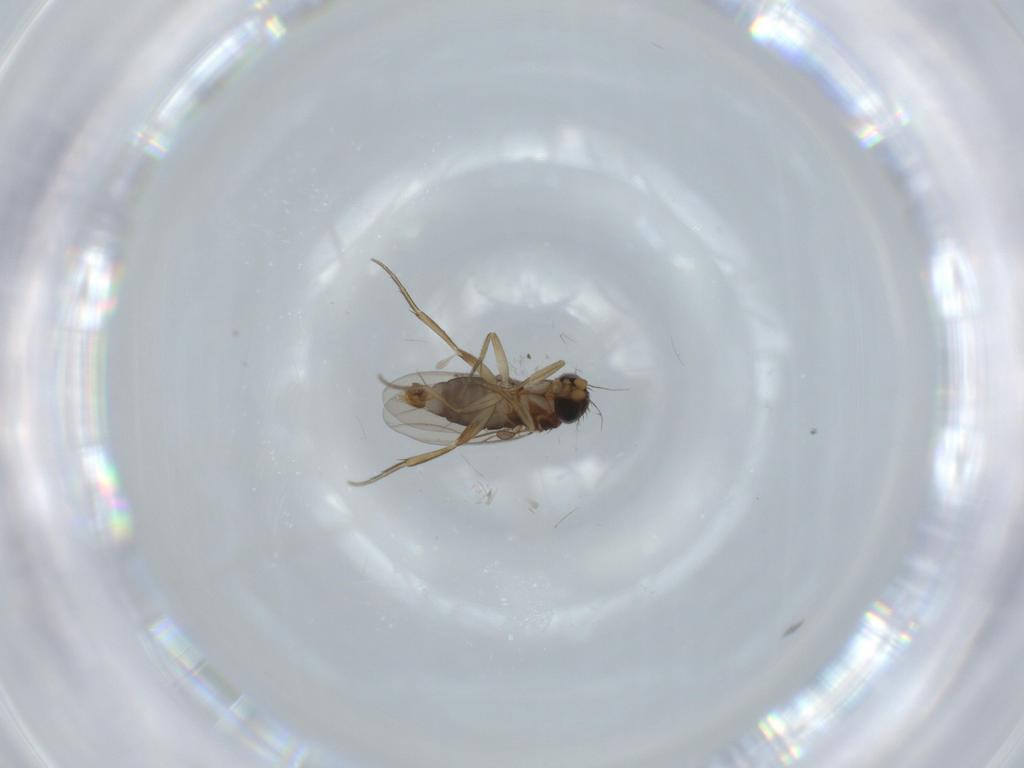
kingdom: Animalia
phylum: Arthropoda
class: Insecta
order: Diptera
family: Phoridae
